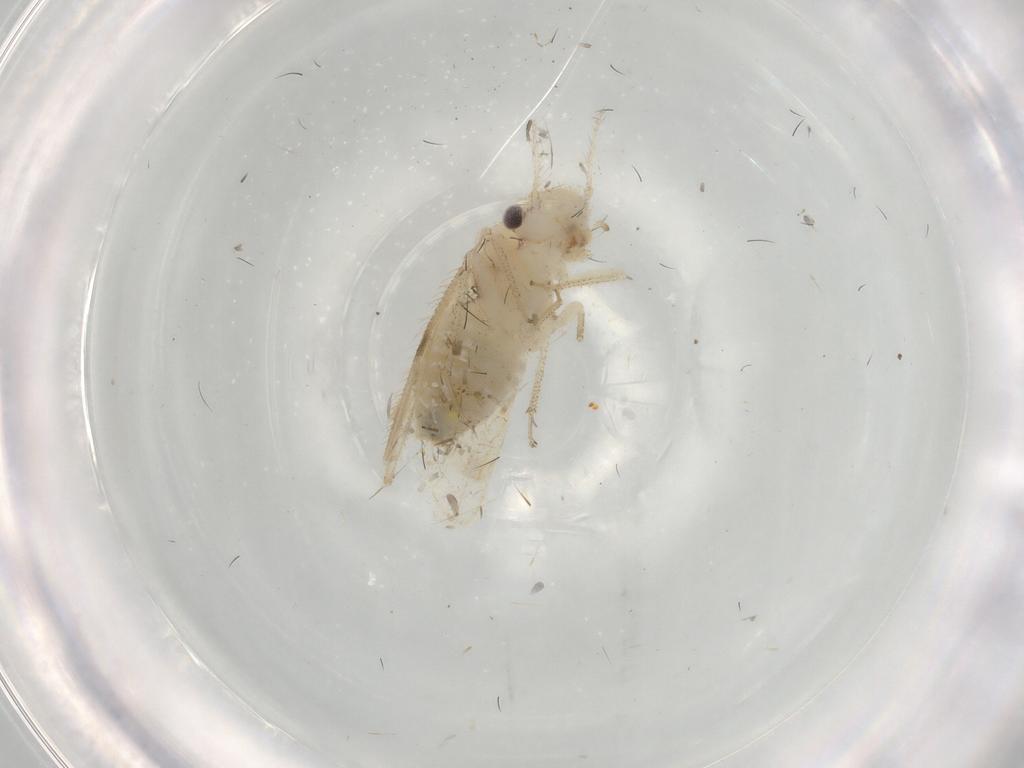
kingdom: Animalia
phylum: Arthropoda
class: Insecta
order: Psocodea
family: Pseudocaeciliidae
